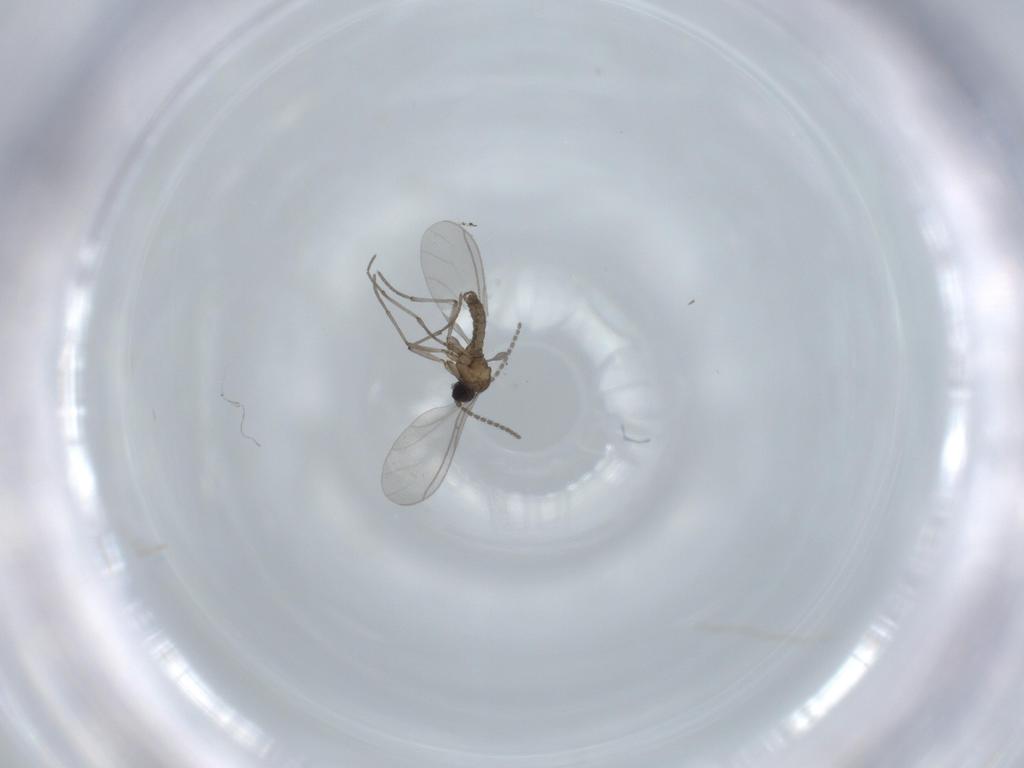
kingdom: Animalia
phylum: Arthropoda
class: Insecta
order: Diptera
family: Sciaridae
